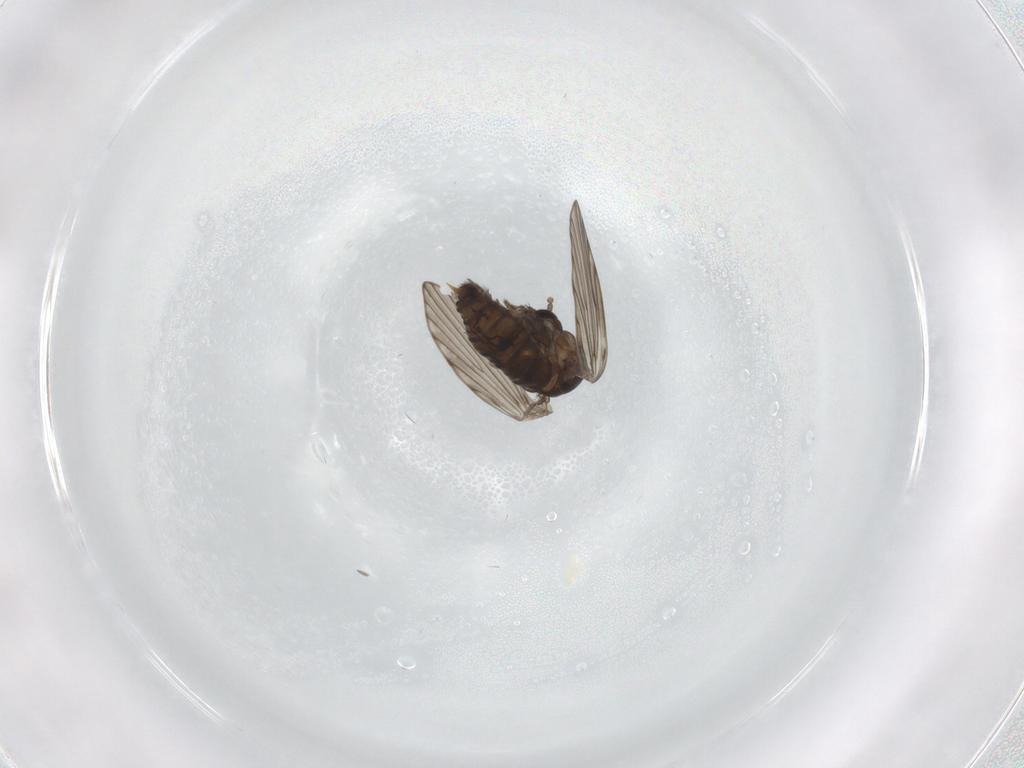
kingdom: Animalia
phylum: Arthropoda
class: Insecta
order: Diptera
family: Psychodidae
